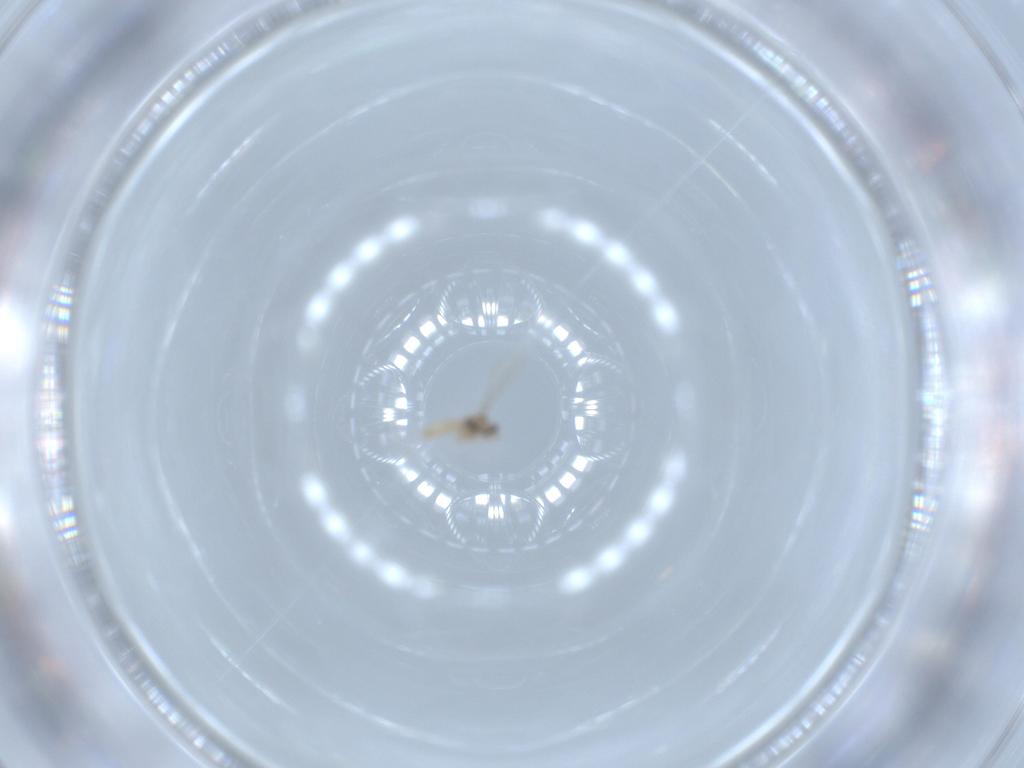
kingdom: Animalia
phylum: Arthropoda
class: Insecta
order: Diptera
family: Cecidomyiidae
